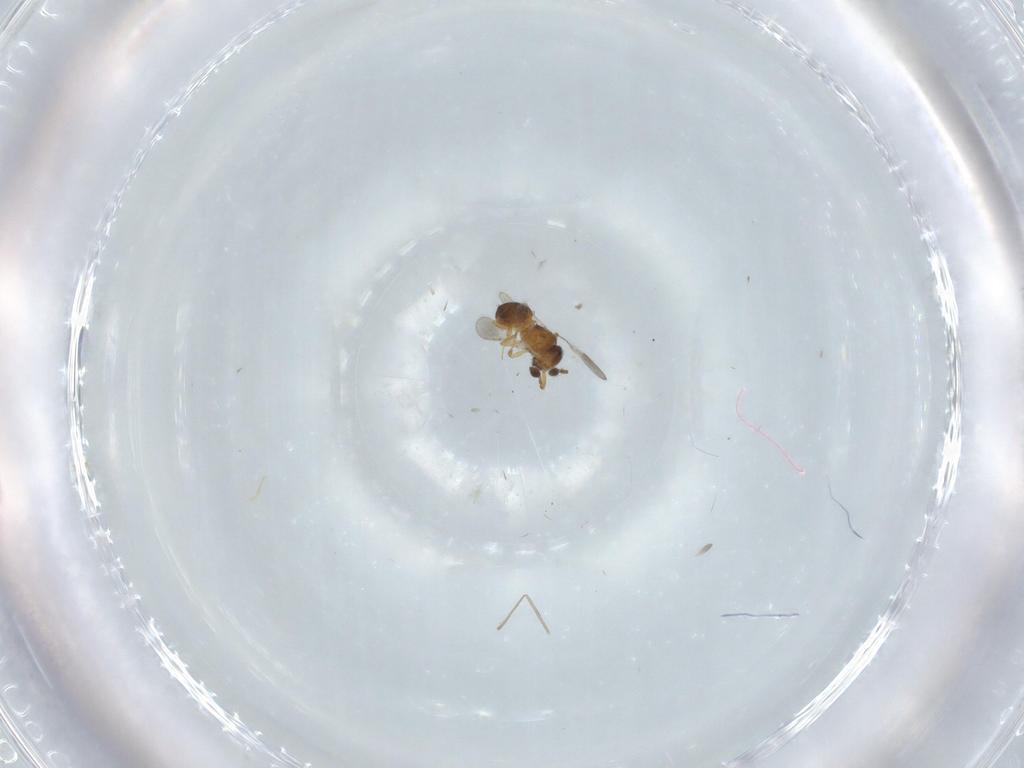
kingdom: Animalia
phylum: Arthropoda
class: Insecta
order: Hymenoptera
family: Scelionidae
